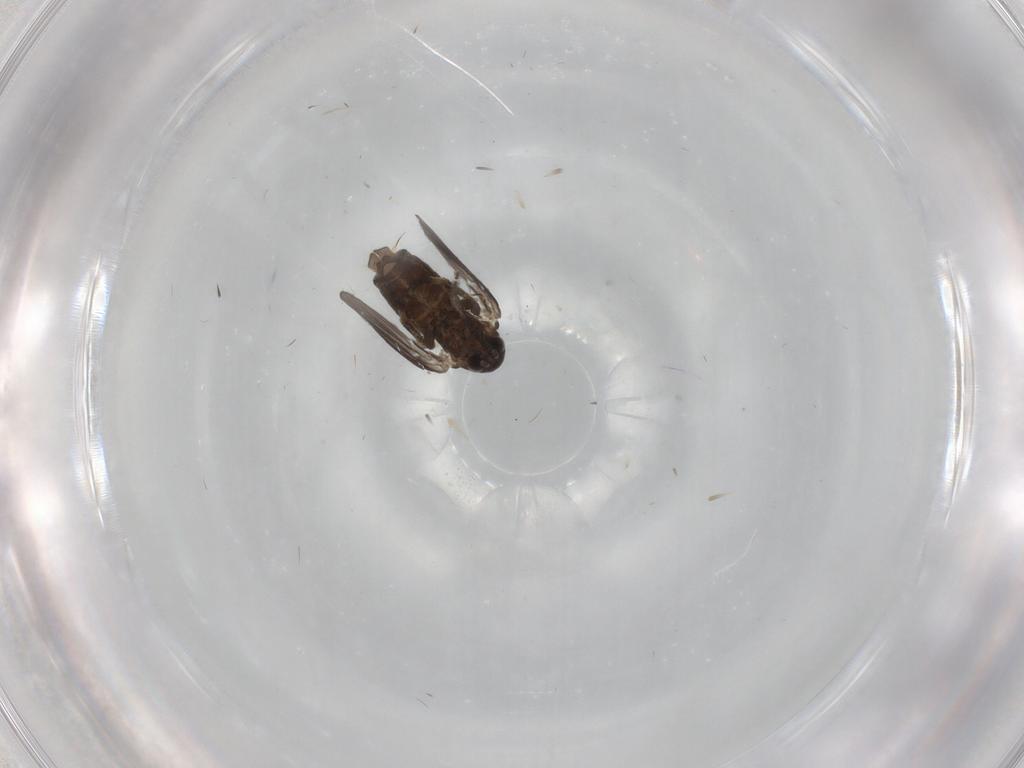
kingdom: Animalia
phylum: Arthropoda
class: Insecta
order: Diptera
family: Psychodidae
